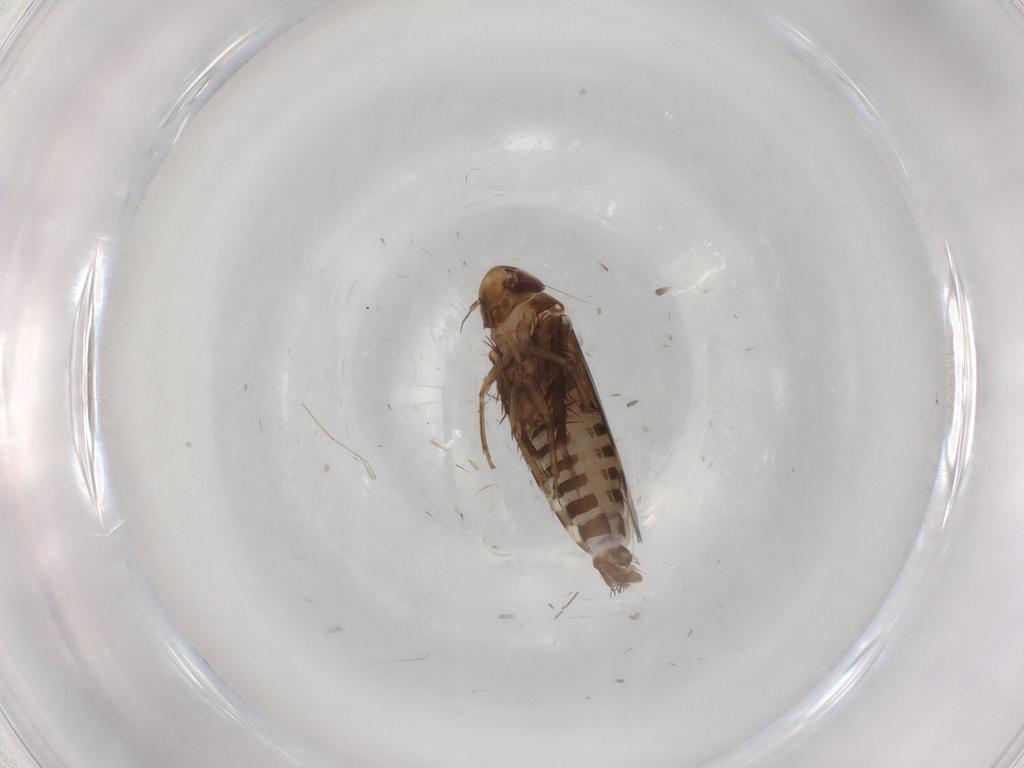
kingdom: Animalia
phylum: Arthropoda
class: Insecta
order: Hemiptera
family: Cicadellidae
